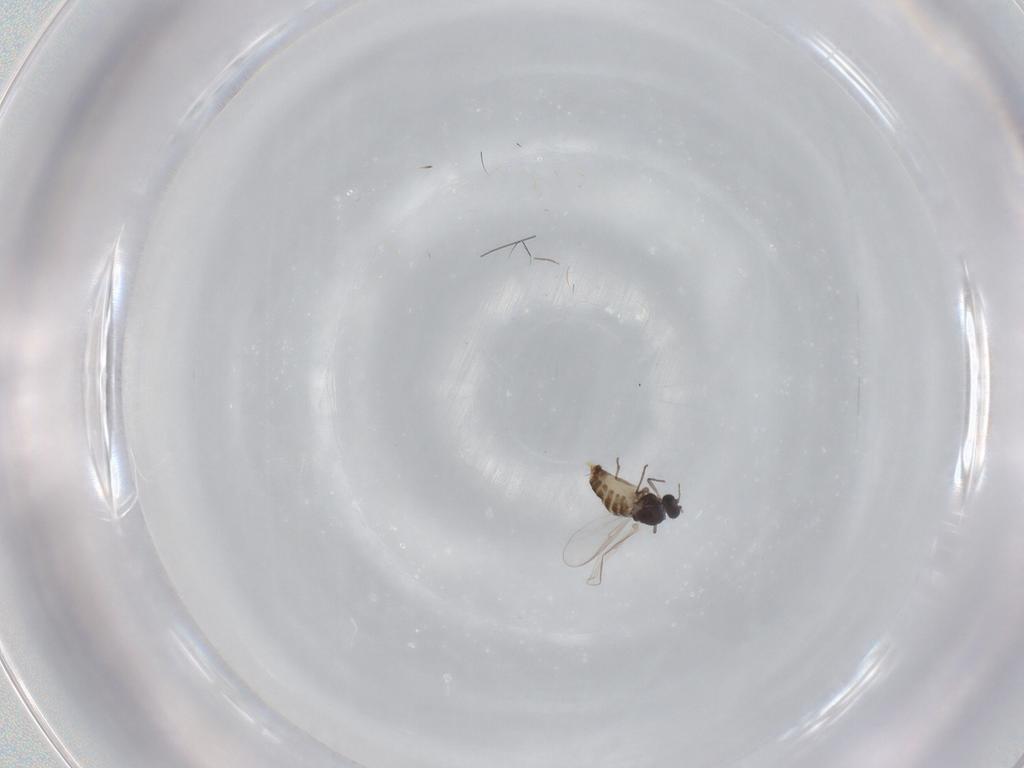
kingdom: Animalia
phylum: Arthropoda
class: Insecta
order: Diptera
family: Chironomidae
